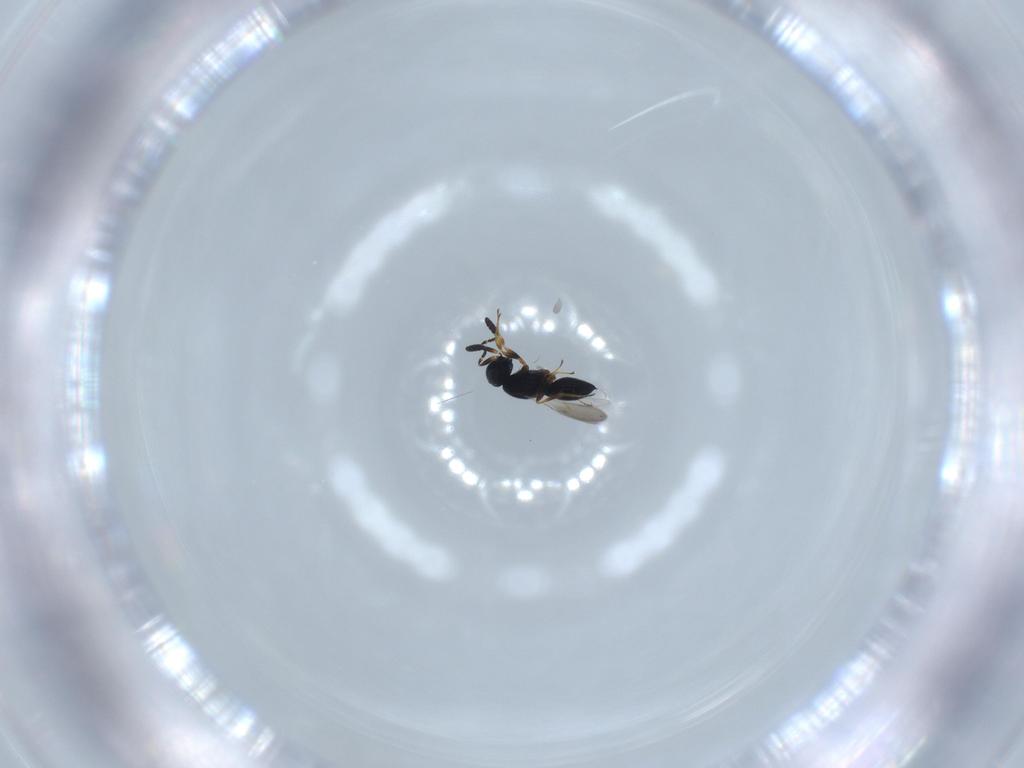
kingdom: Animalia
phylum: Arthropoda
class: Insecta
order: Hymenoptera
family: Scelionidae
